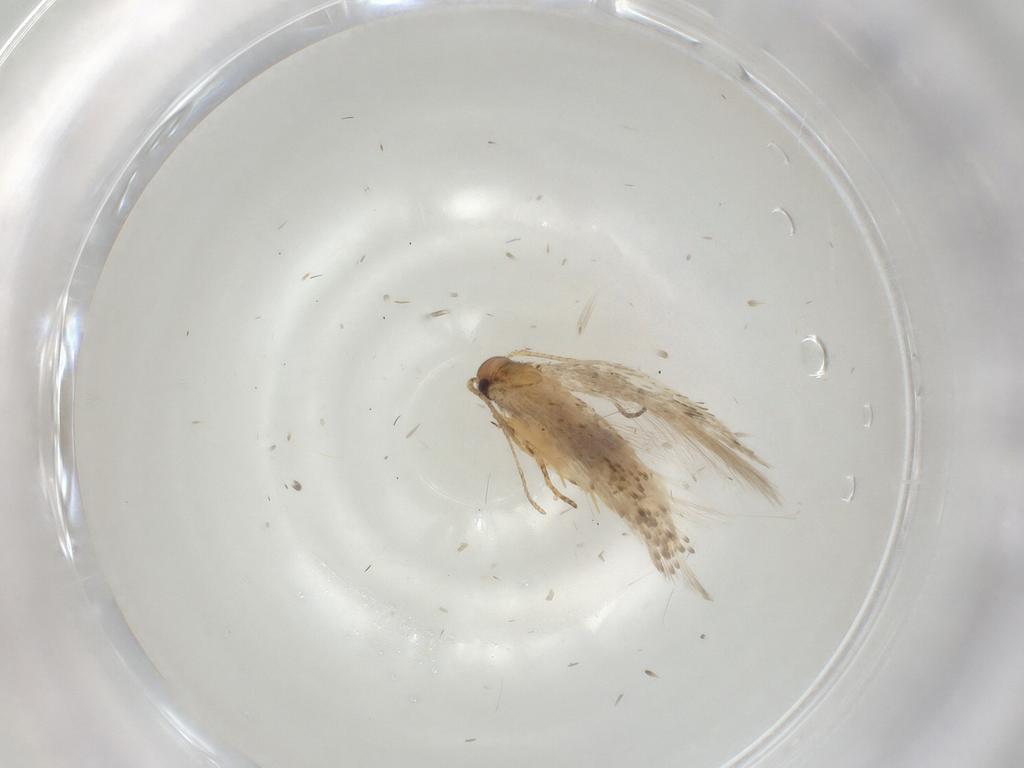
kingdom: Animalia
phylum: Arthropoda
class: Insecta
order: Lepidoptera
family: Gelechiidae
